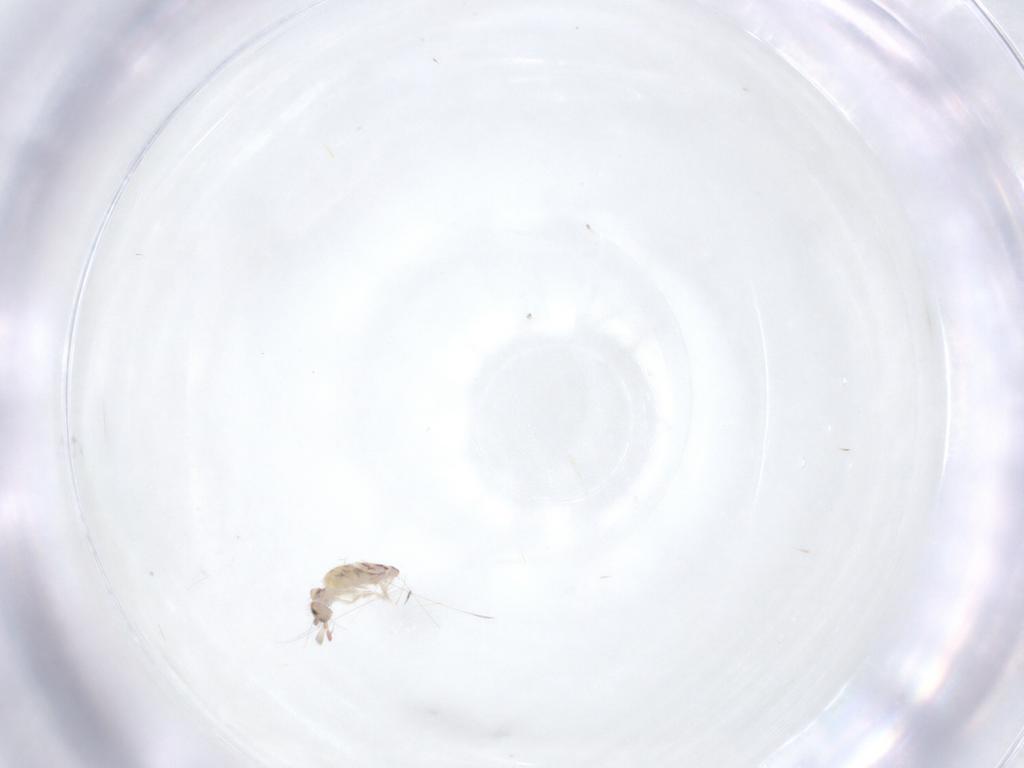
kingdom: Animalia
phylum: Arthropoda
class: Collembola
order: Entomobryomorpha
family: Entomobryidae
